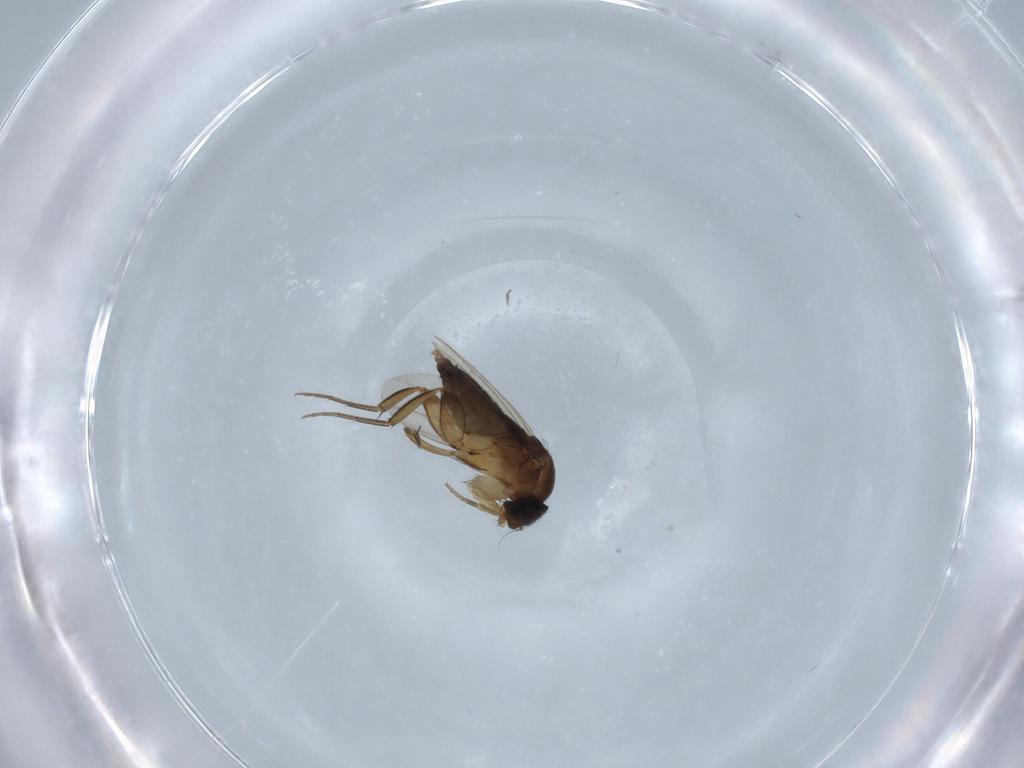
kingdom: Animalia
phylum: Arthropoda
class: Insecta
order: Diptera
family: Phoridae
